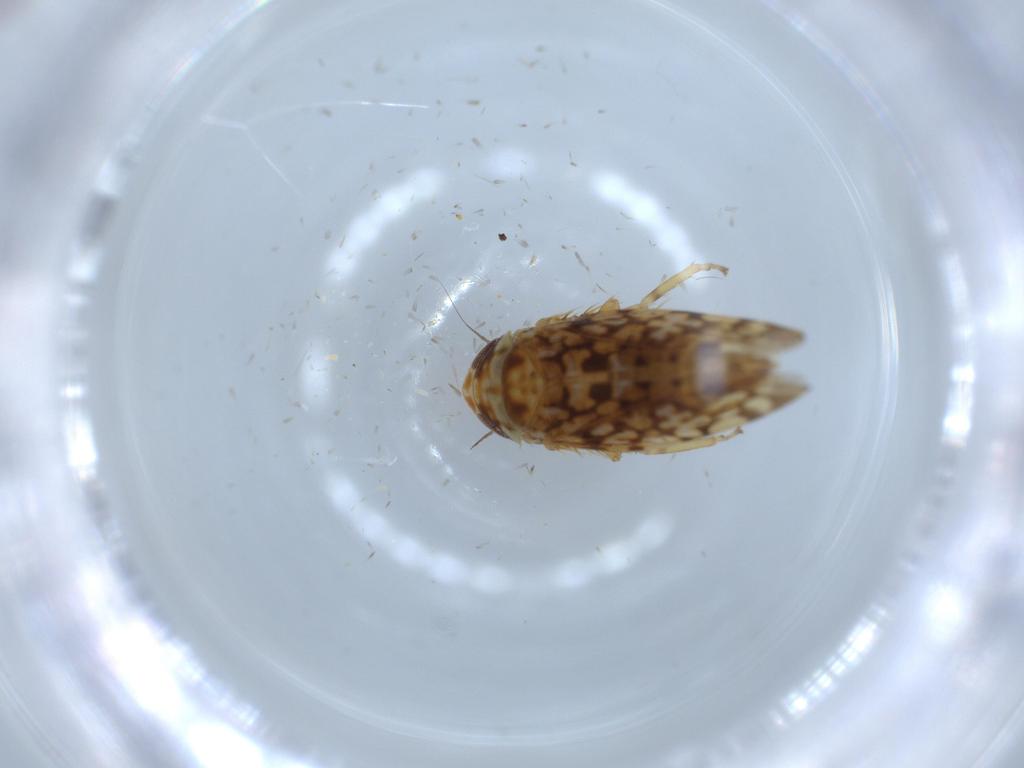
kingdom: Animalia
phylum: Arthropoda
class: Insecta
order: Hemiptera
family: Cicadellidae
